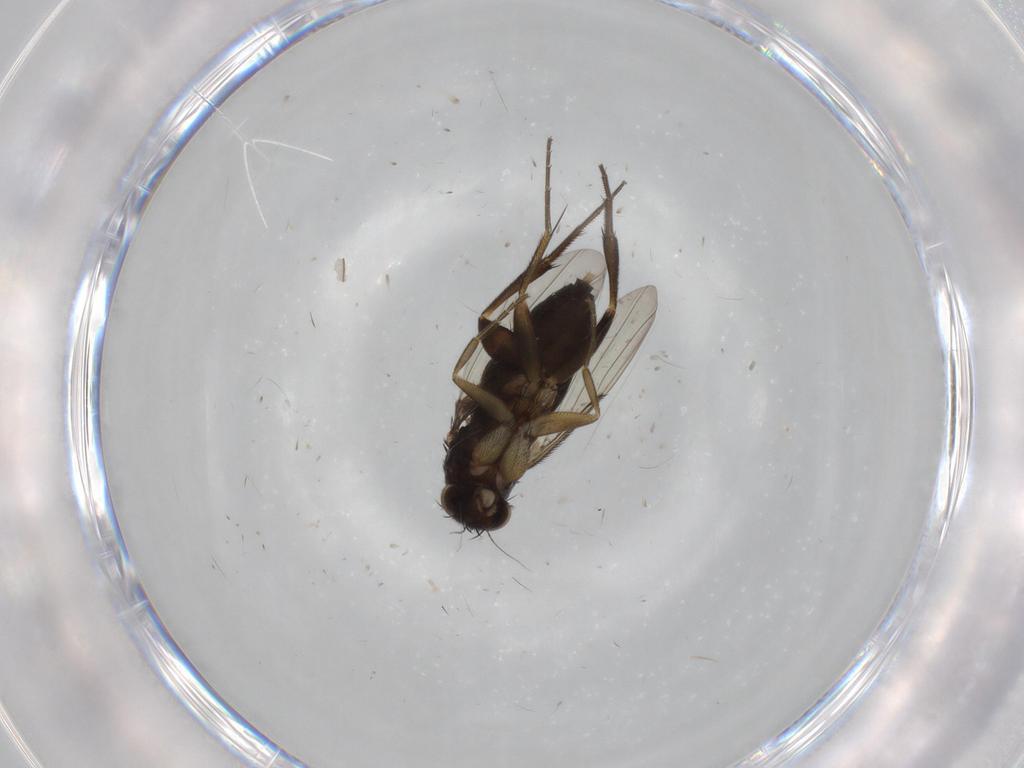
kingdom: Animalia
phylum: Arthropoda
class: Insecta
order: Diptera
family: Phoridae
